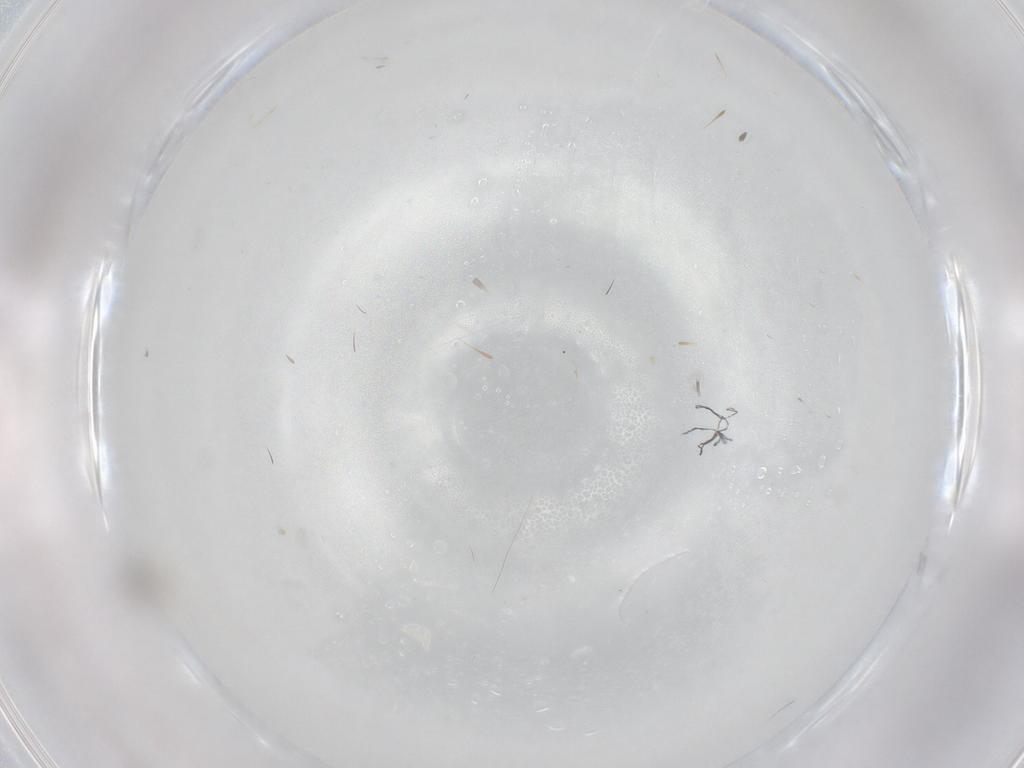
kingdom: Animalia
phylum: Arthropoda
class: Insecta
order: Diptera
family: Cecidomyiidae
